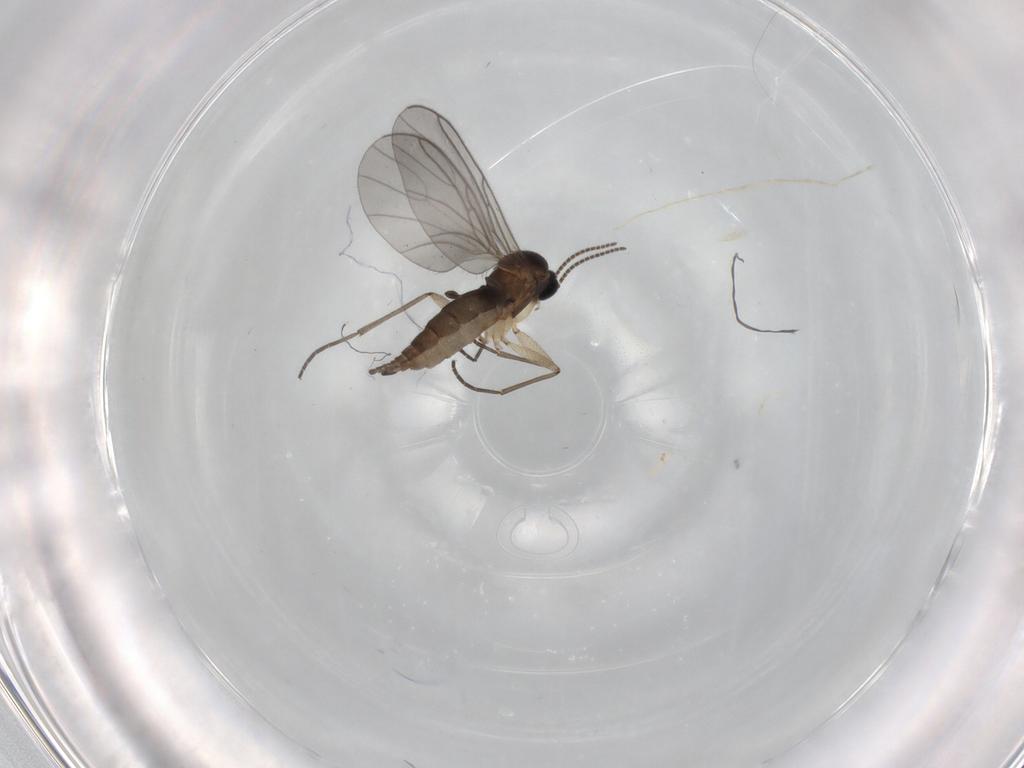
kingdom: Animalia
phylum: Arthropoda
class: Insecta
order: Diptera
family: Sciaridae
